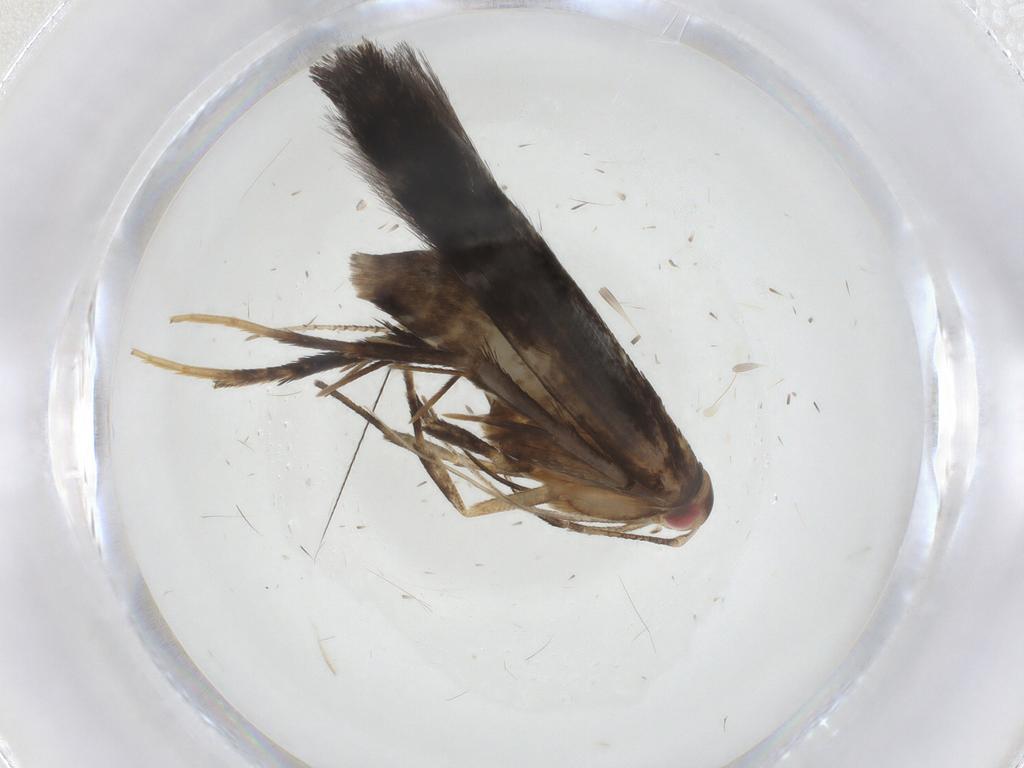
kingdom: Animalia
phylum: Arthropoda
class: Insecta
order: Lepidoptera
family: Cosmopterigidae
